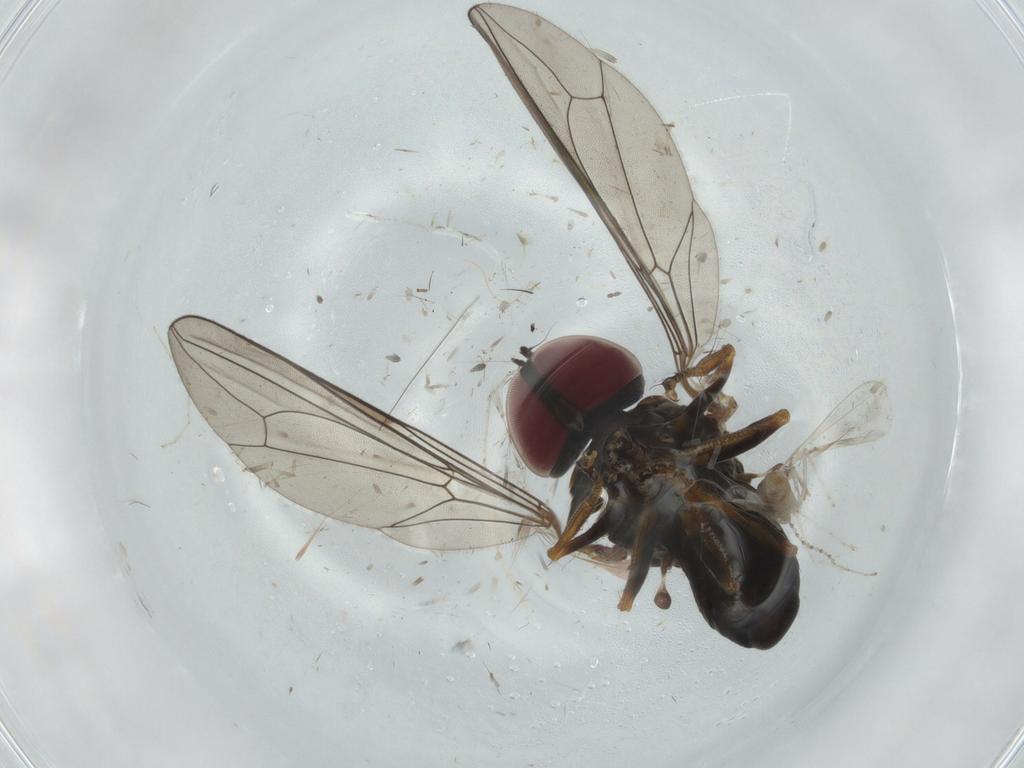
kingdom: Animalia
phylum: Arthropoda
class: Insecta
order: Diptera
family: Pipunculidae
